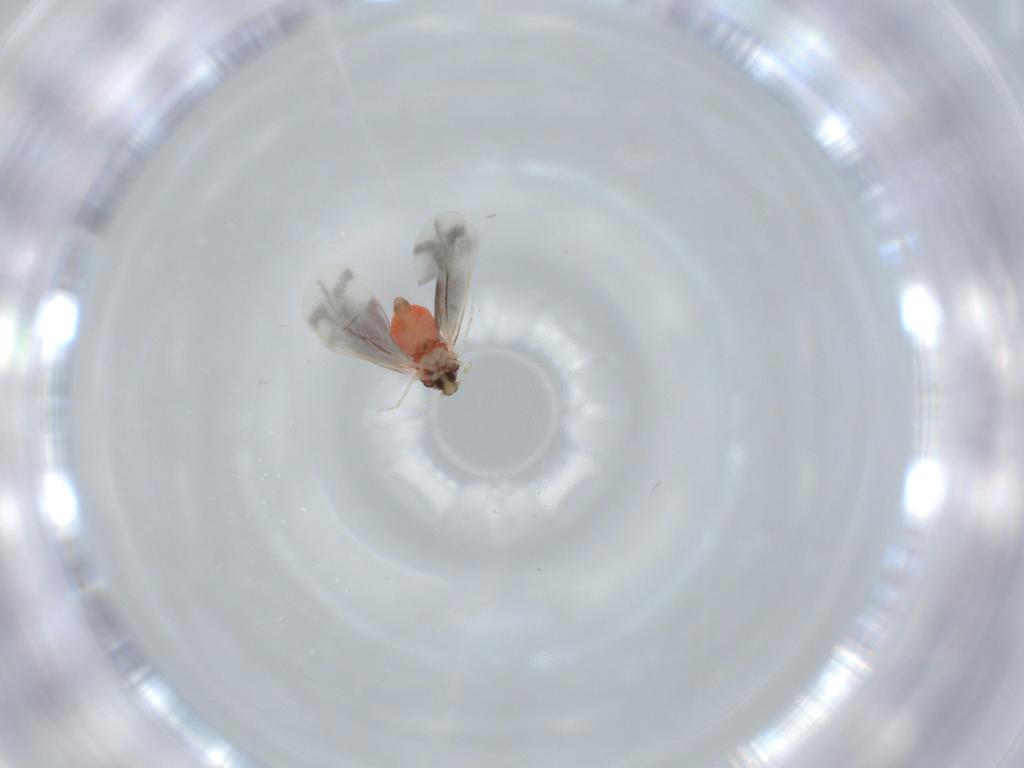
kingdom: Animalia
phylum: Arthropoda
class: Insecta
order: Hemiptera
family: Aleyrodidae
